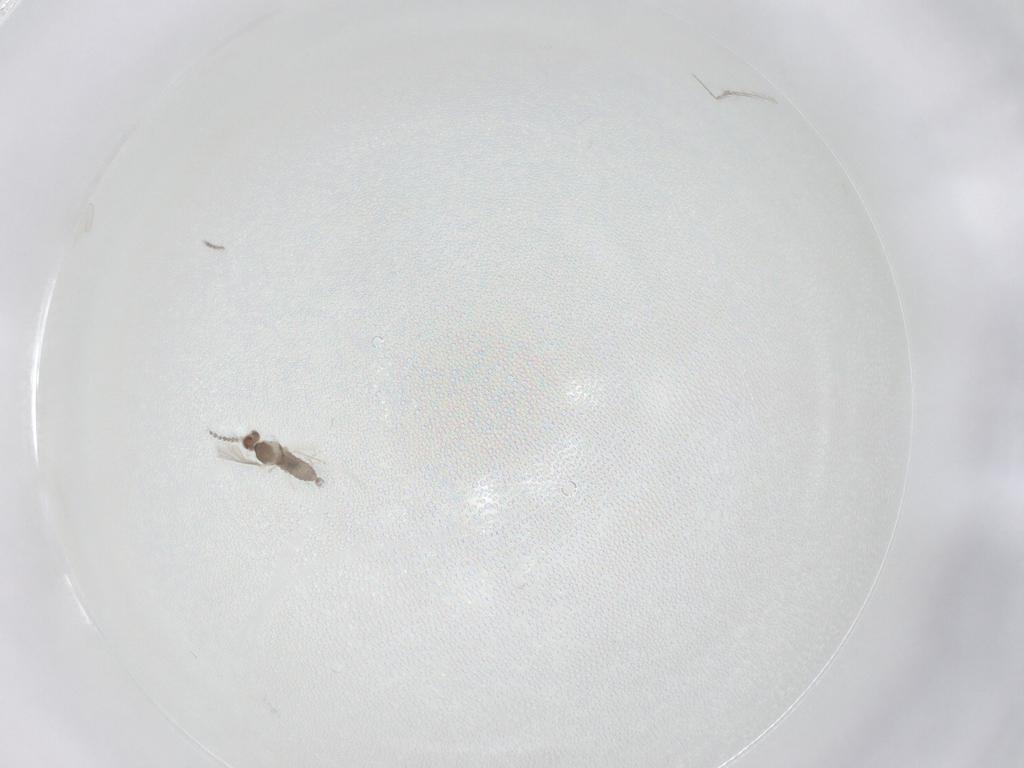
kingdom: Animalia
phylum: Arthropoda
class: Insecta
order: Diptera
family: Cecidomyiidae
